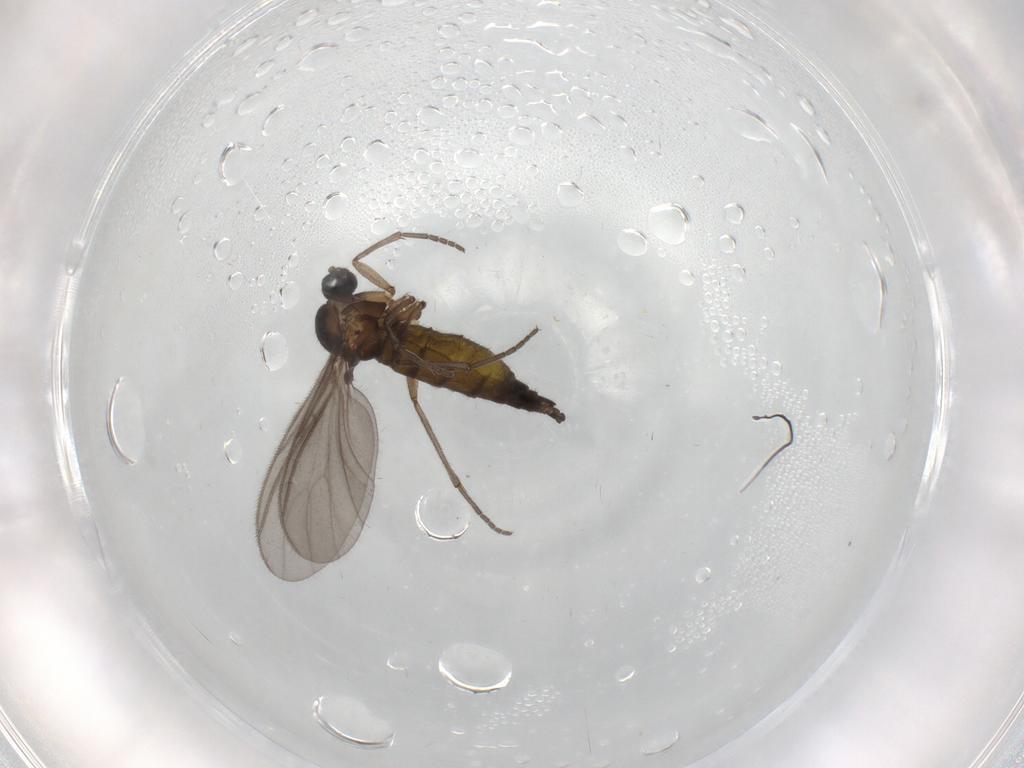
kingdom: Animalia
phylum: Arthropoda
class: Insecta
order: Diptera
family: Sciaridae
